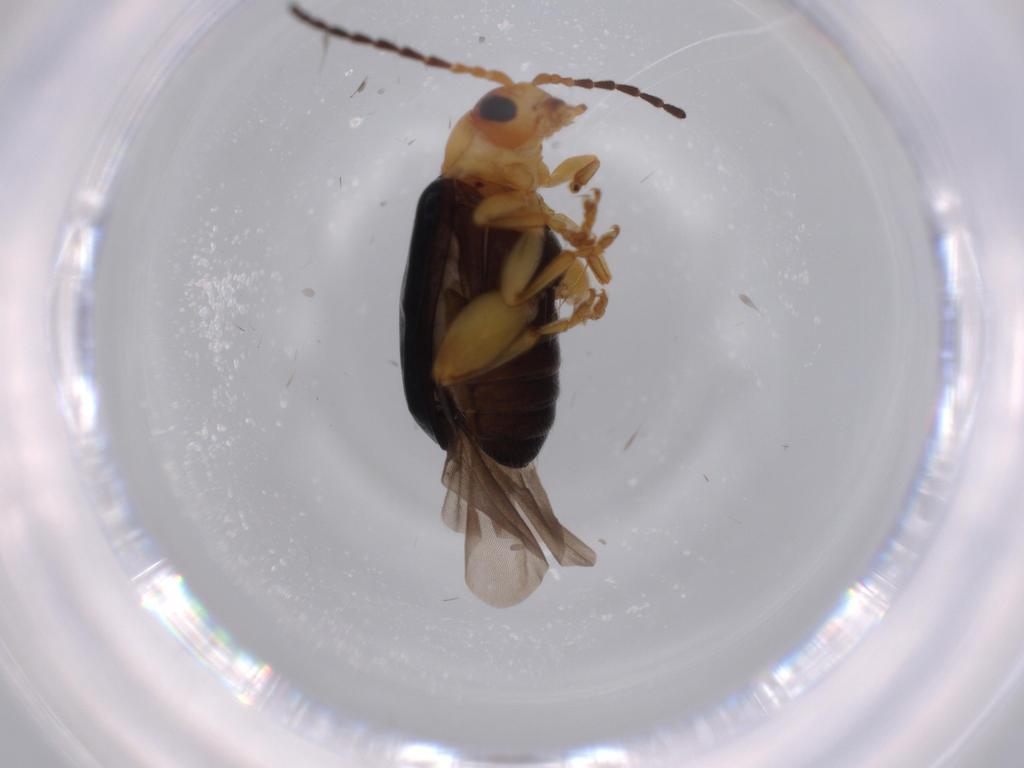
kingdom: Animalia
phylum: Arthropoda
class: Insecta
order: Coleoptera
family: Chrysomelidae
